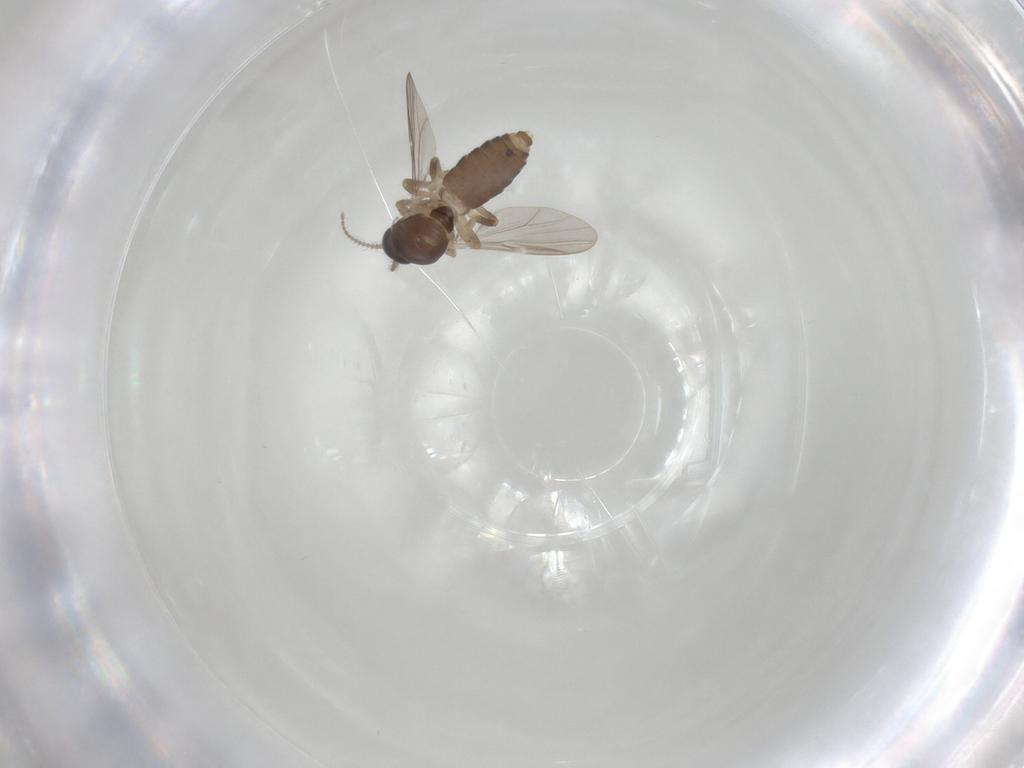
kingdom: Animalia
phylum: Arthropoda
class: Insecta
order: Diptera
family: Ceratopogonidae
